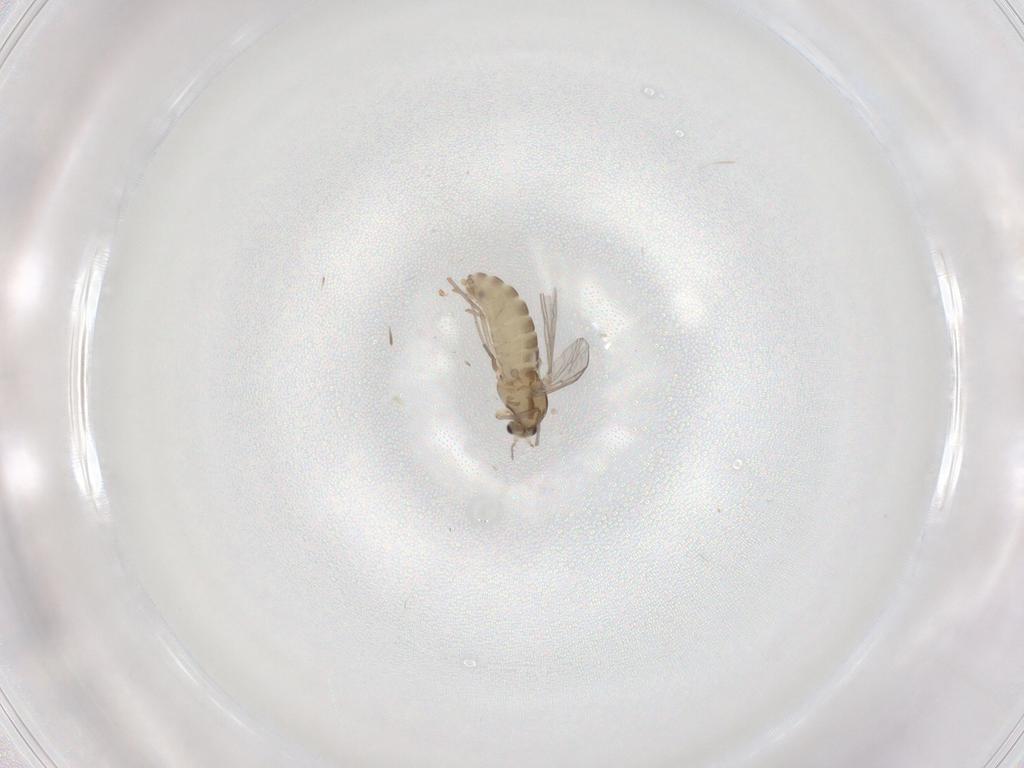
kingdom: Animalia
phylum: Arthropoda
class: Insecta
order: Diptera
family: Chironomidae
